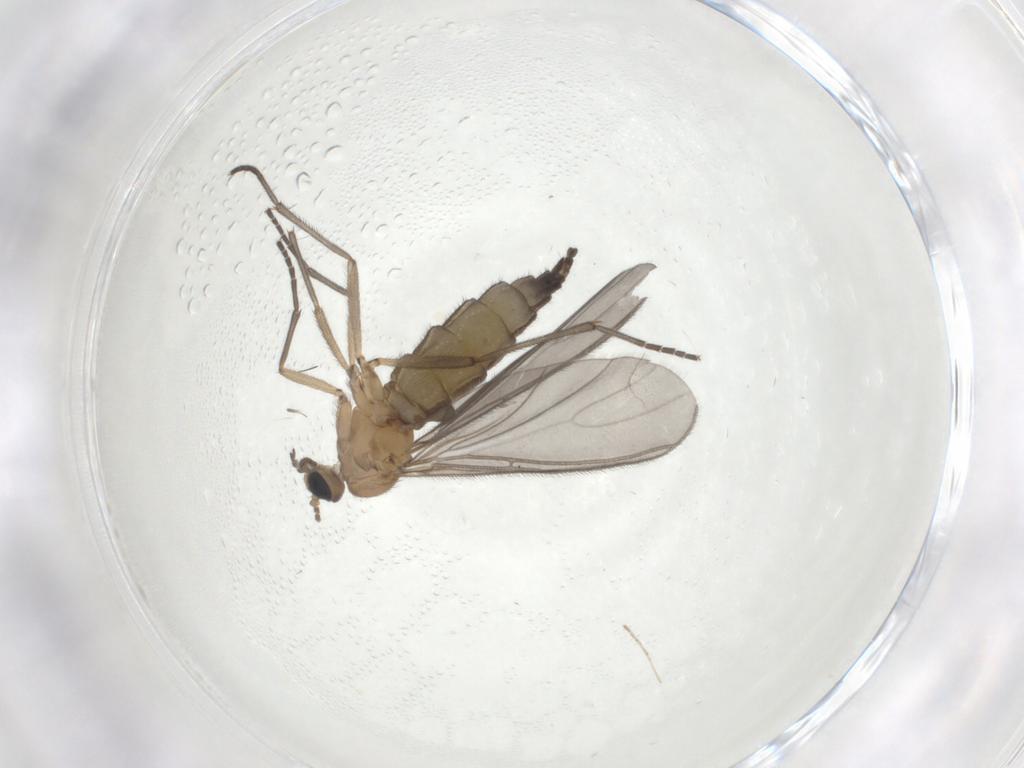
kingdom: Animalia
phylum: Arthropoda
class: Insecta
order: Diptera
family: Sciaridae
